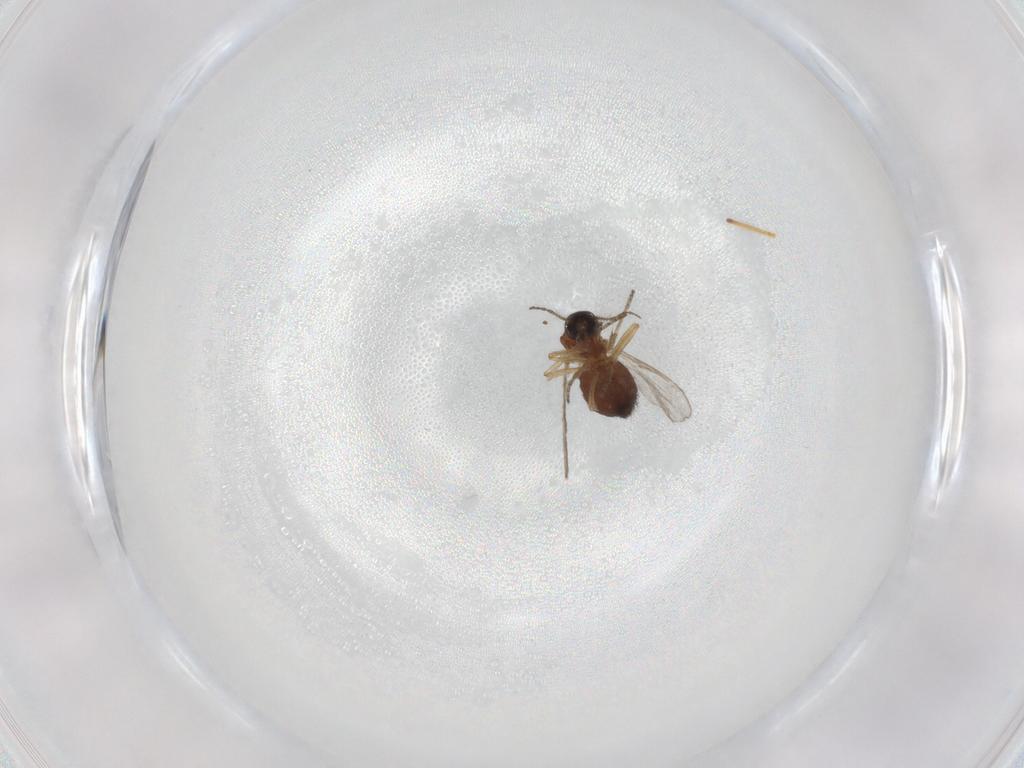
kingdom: Animalia
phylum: Arthropoda
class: Insecta
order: Diptera
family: Ceratopogonidae
